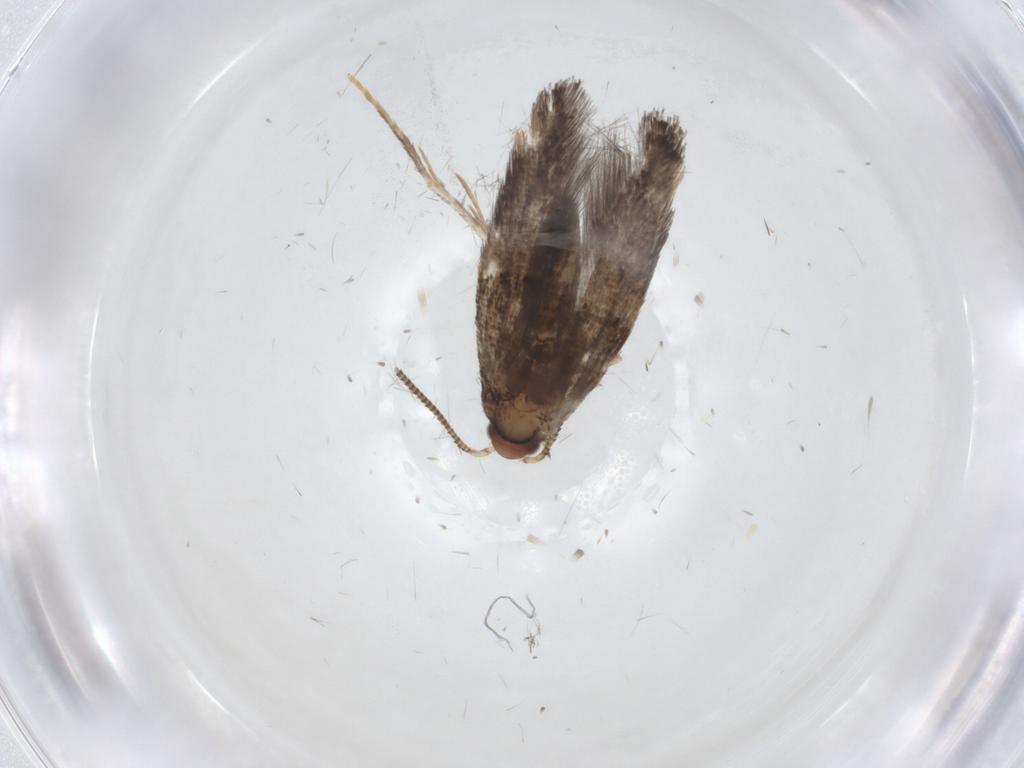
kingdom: Animalia
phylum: Arthropoda
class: Insecta
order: Lepidoptera
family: Tineidae
